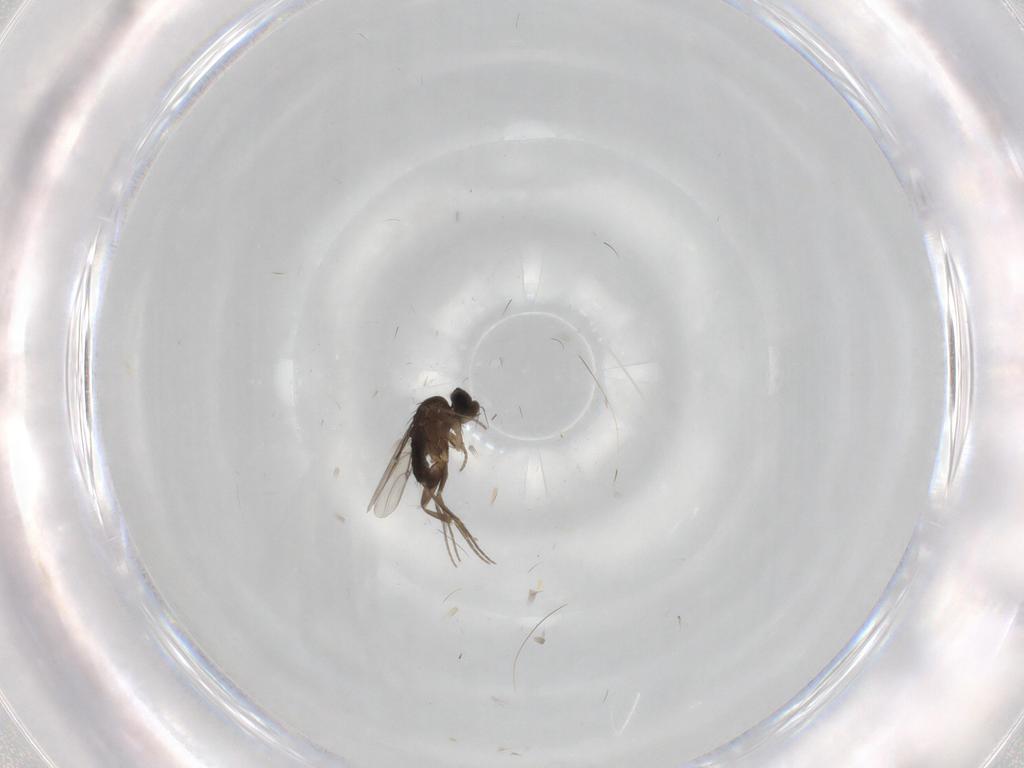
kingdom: Animalia
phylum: Arthropoda
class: Insecta
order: Diptera
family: Phoridae
